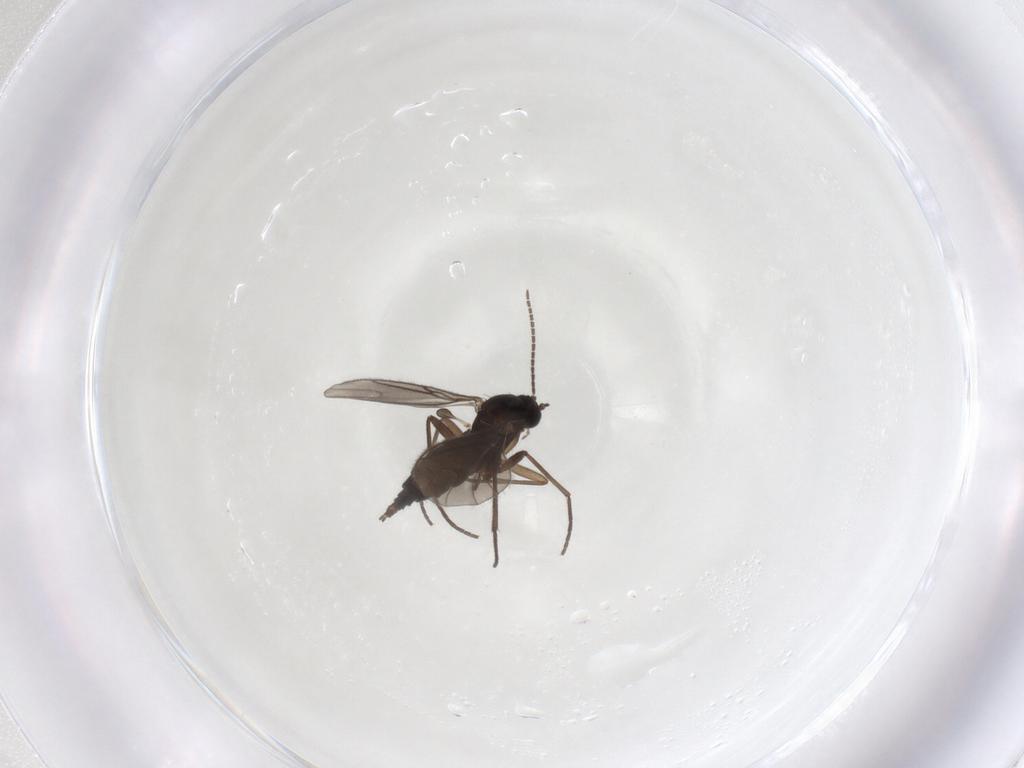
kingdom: Animalia
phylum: Arthropoda
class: Insecta
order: Diptera
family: Sciaridae
